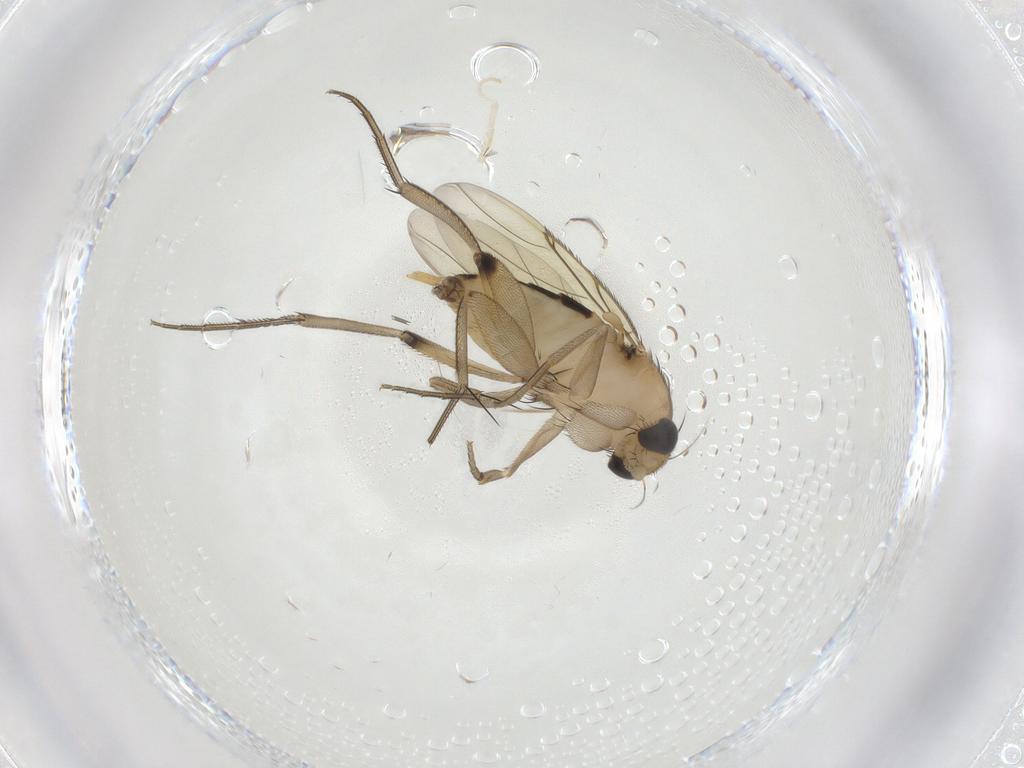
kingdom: Animalia
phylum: Arthropoda
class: Insecta
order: Diptera
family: Phoridae
